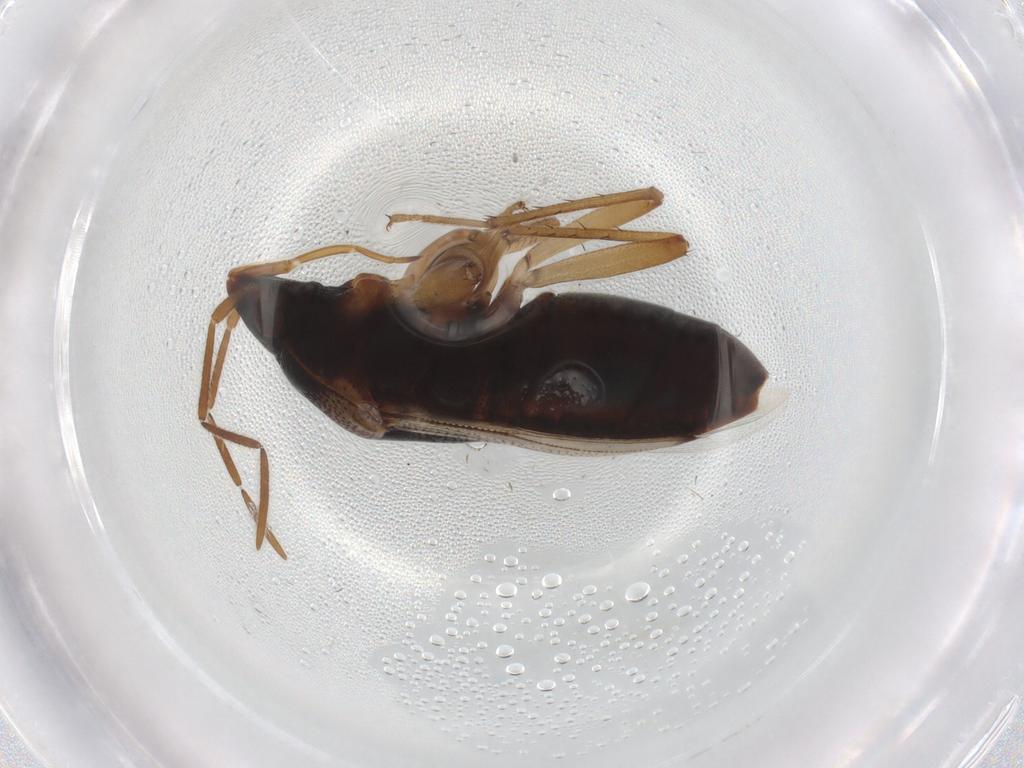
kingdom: Animalia
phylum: Arthropoda
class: Insecta
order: Hemiptera
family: Rhyparochromidae
